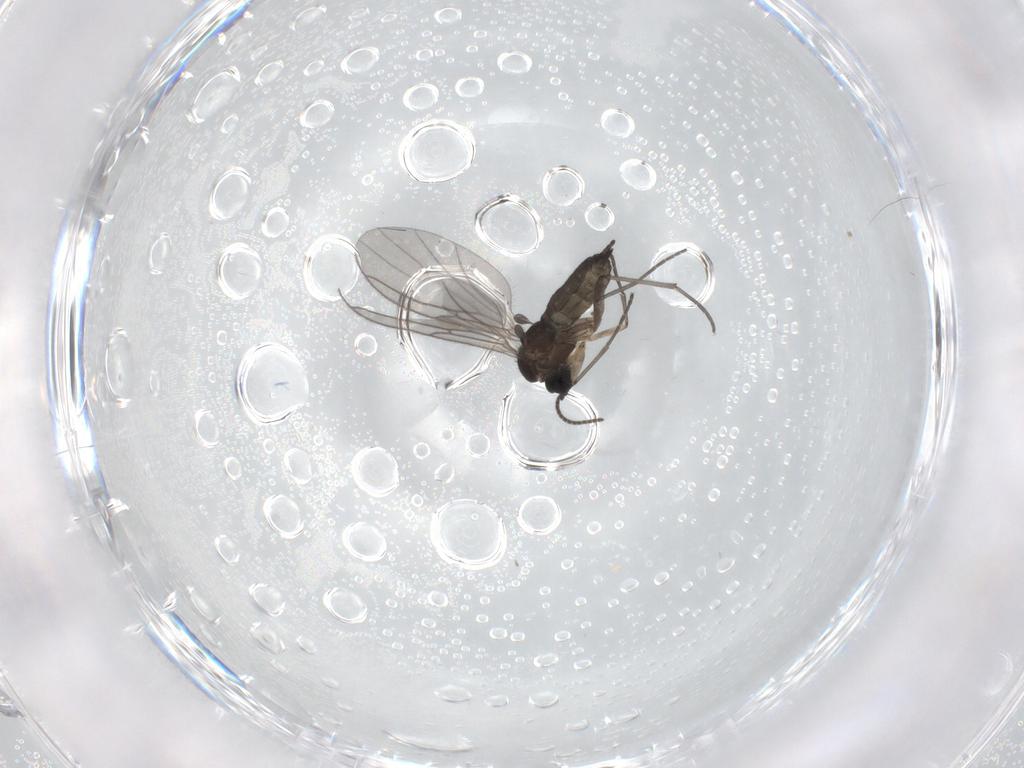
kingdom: Animalia
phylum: Arthropoda
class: Insecta
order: Diptera
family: Sciaridae
